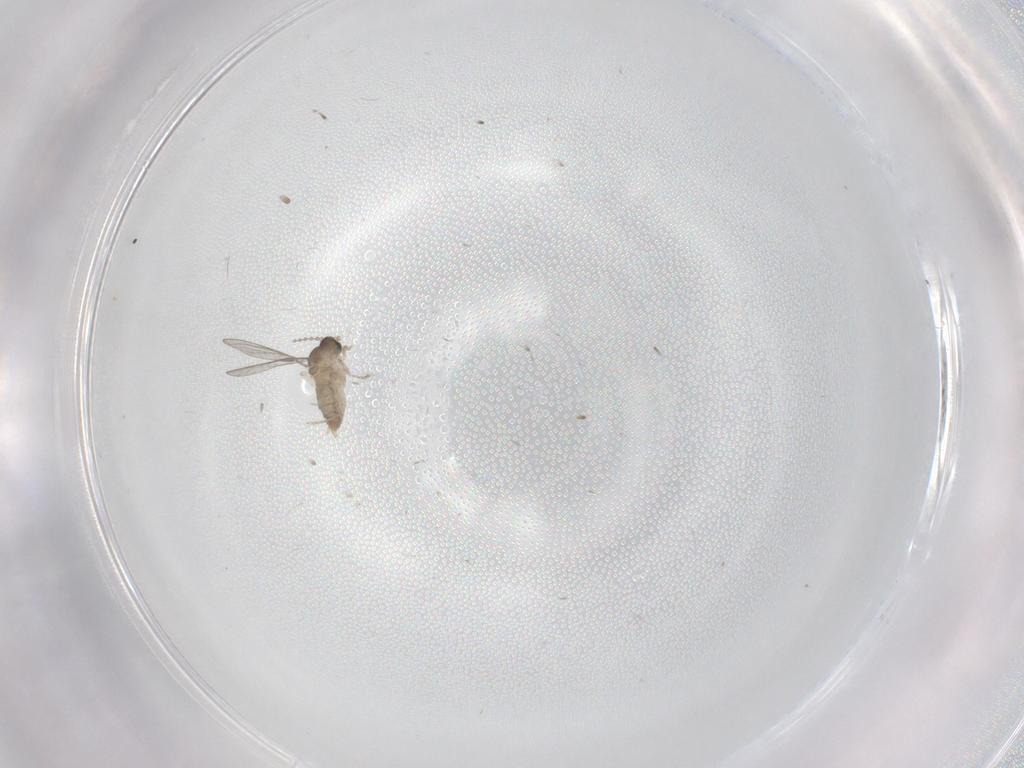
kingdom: Animalia
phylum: Arthropoda
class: Insecta
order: Diptera
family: Cecidomyiidae
